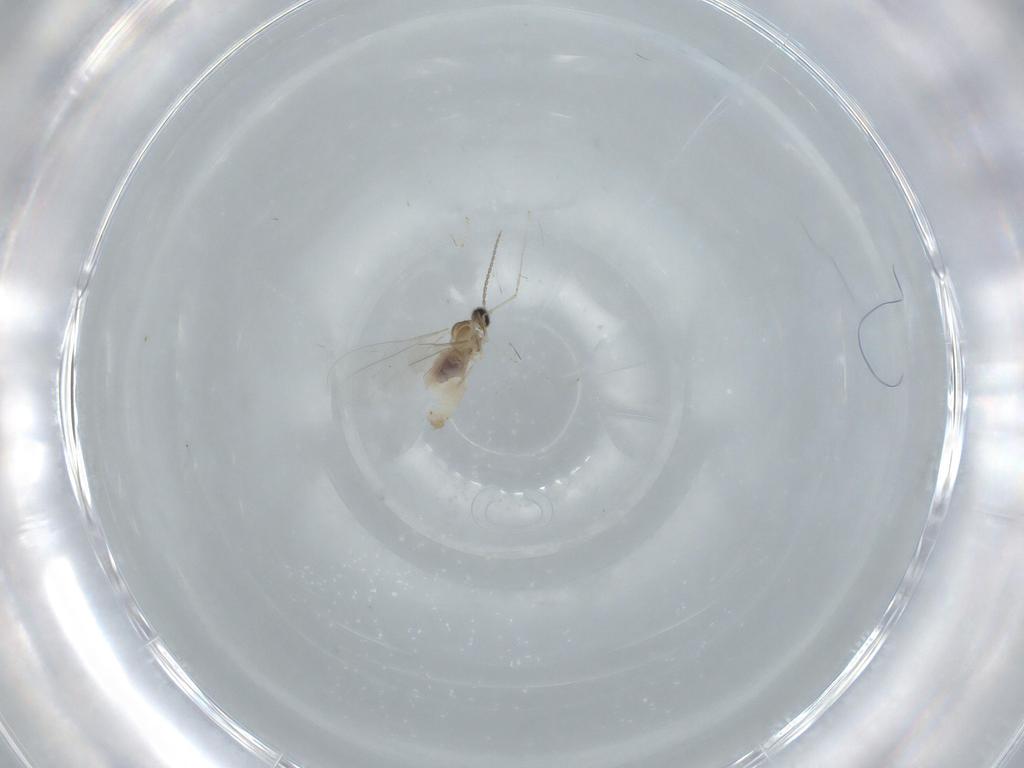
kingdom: Animalia
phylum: Arthropoda
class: Insecta
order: Diptera
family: Cecidomyiidae
